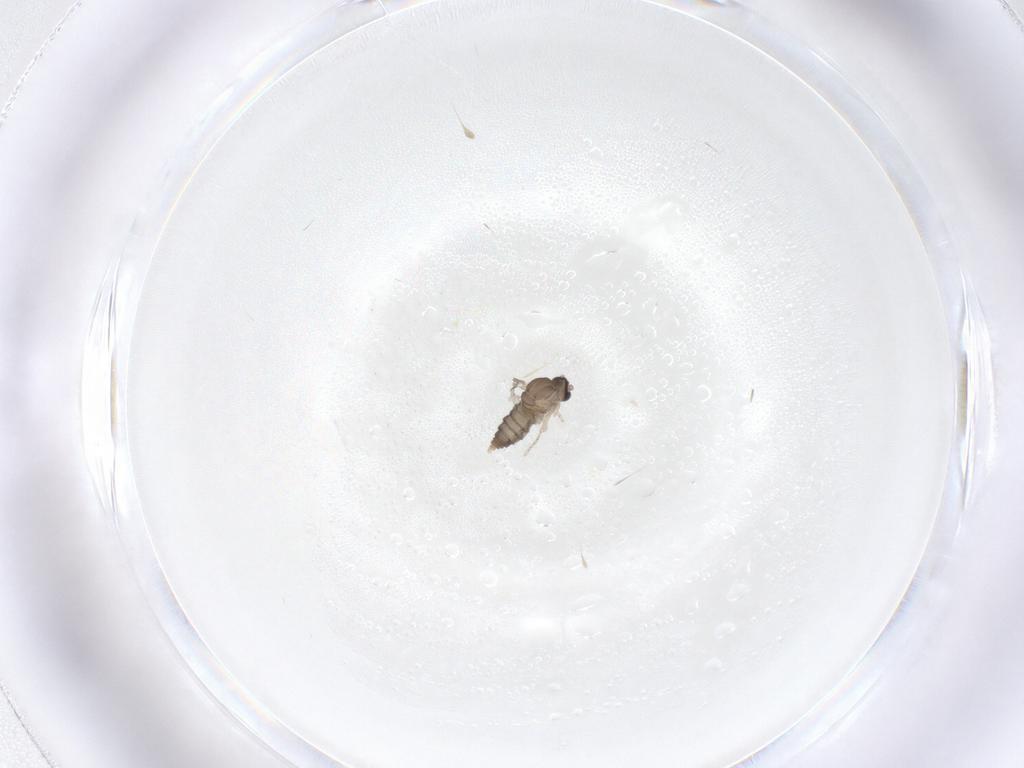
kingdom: Animalia
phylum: Arthropoda
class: Insecta
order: Diptera
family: Cecidomyiidae
